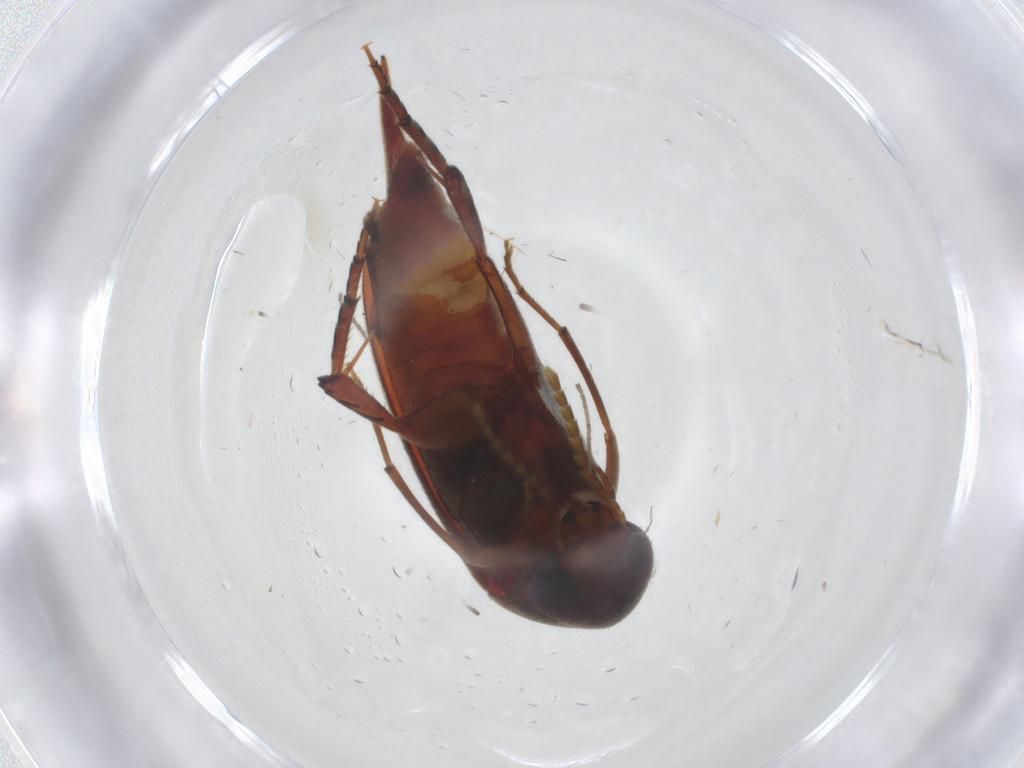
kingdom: Animalia
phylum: Arthropoda
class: Insecta
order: Coleoptera
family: Mordellidae
